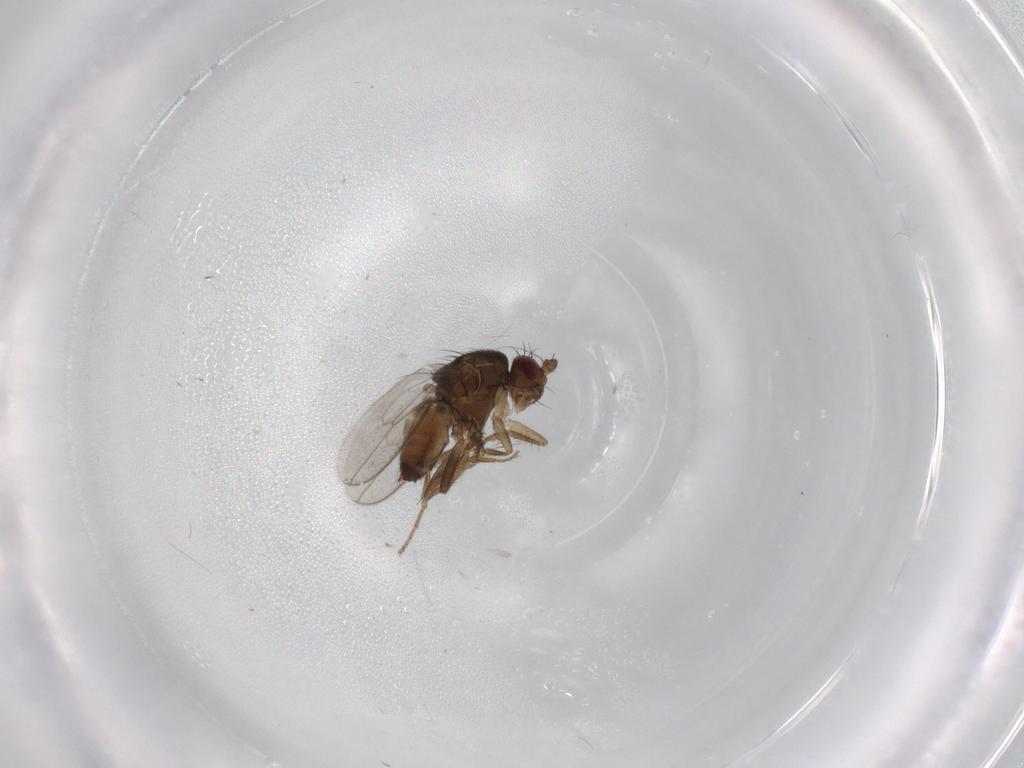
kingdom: Animalia
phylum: Arthropoda
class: Insecta
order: Diptera
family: Sphaeroceridae
